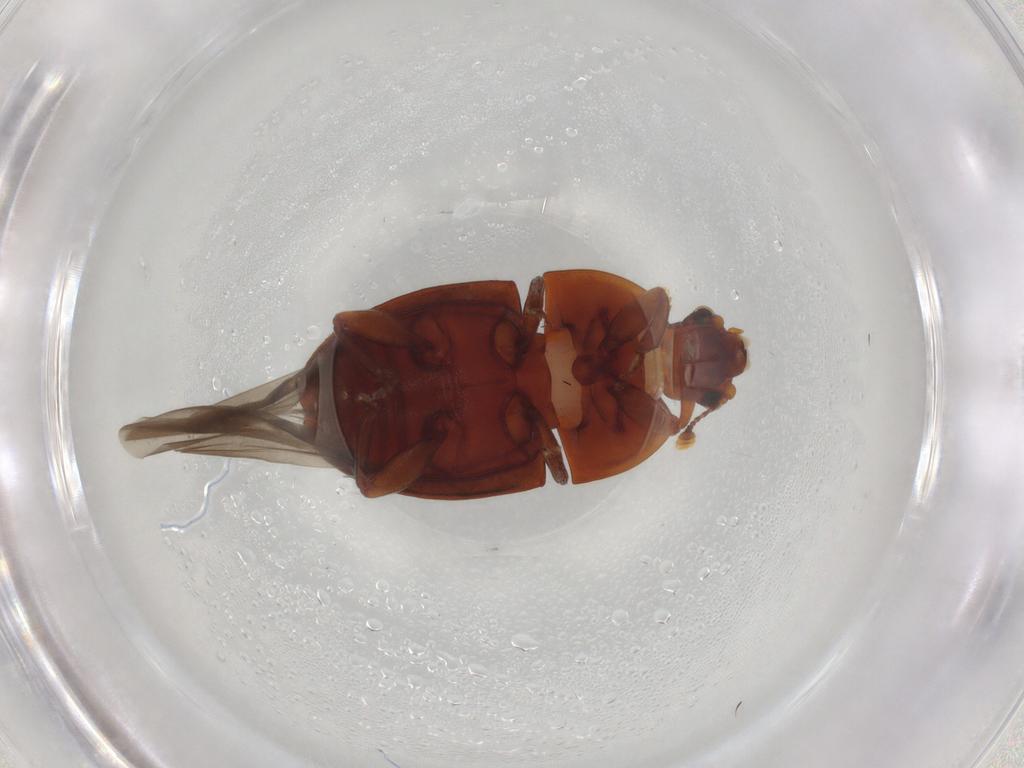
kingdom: Animalia
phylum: Arthropoda
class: Insecta
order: Coleoptera
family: Nitidulidae
